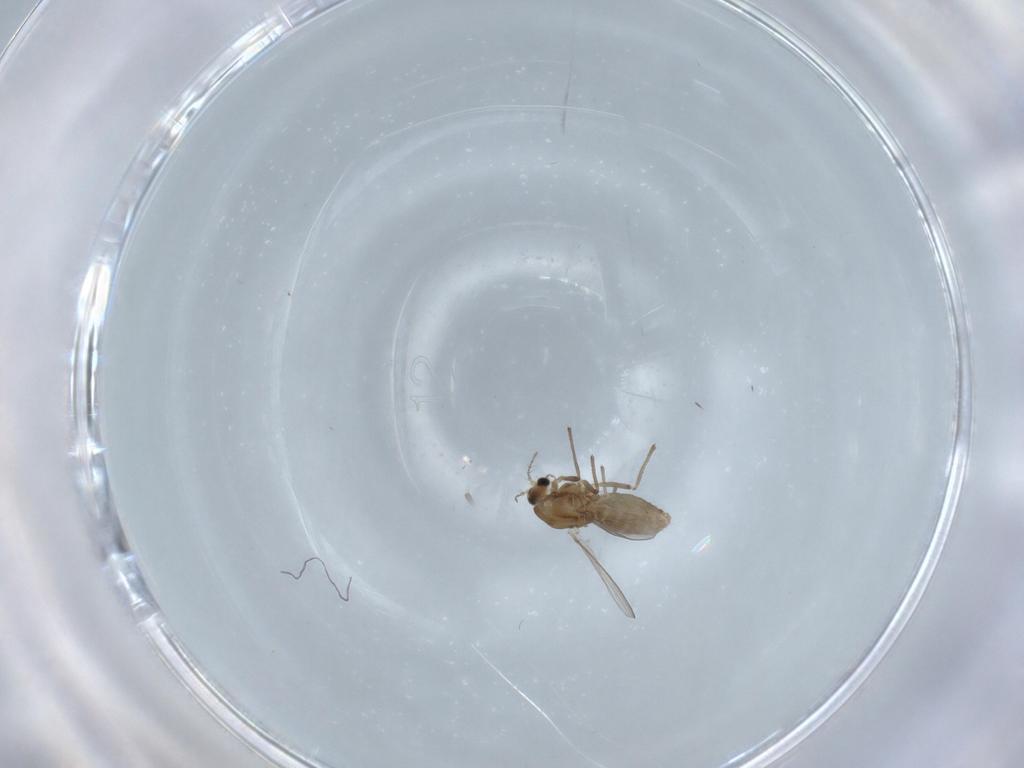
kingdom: Animalia
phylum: Arthropoda
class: Insecta
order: Diptera
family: Chironomidae
